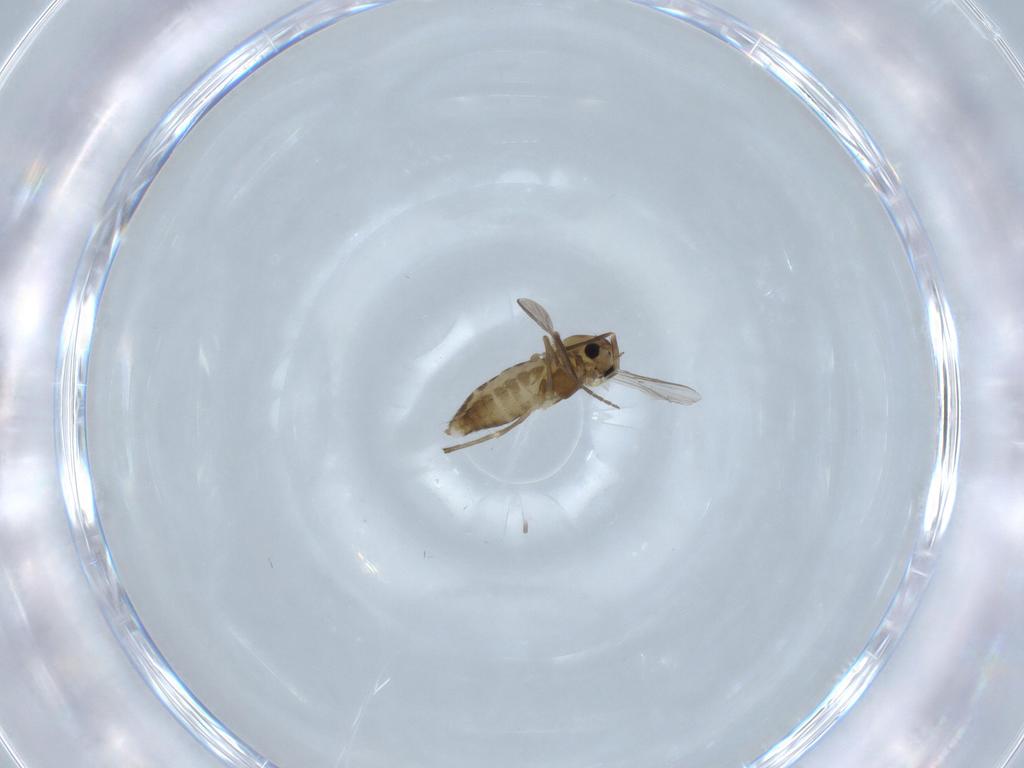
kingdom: Animalia
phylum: Arthropoda
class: Insecta
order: Diptera
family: Chironomidae
